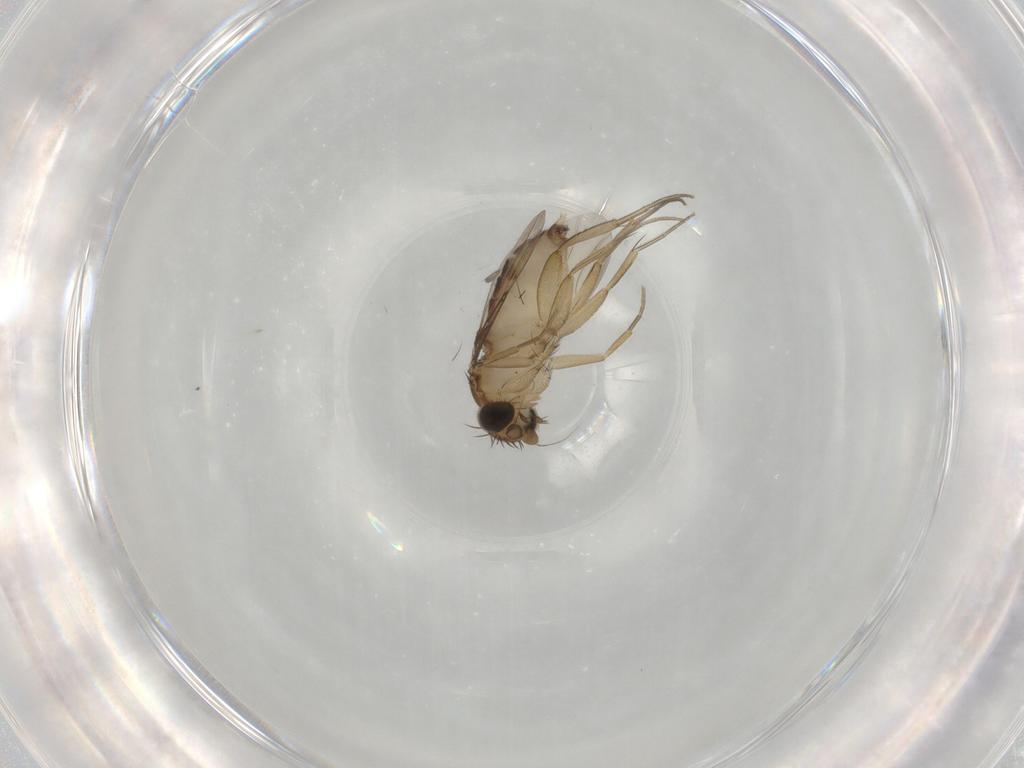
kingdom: Animalia
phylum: Arthropoda
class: Insecta
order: Diptera
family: Phoridae
